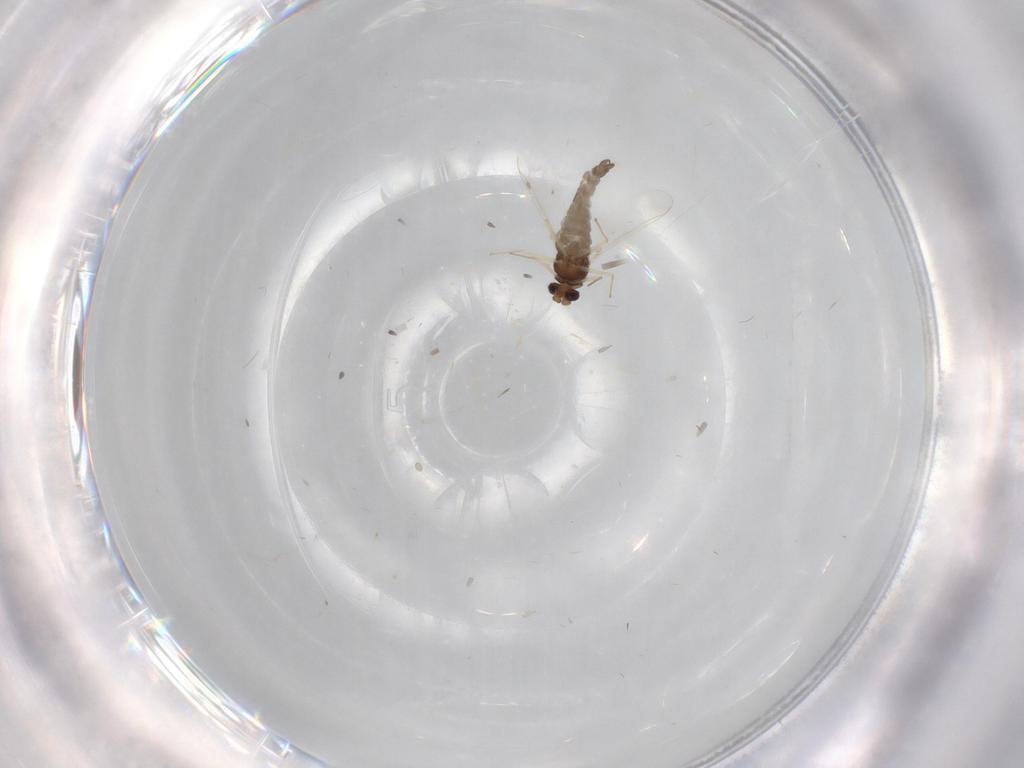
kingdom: Animalia
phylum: Arthropoda
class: Insecta
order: Diptera
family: Chironomidae
